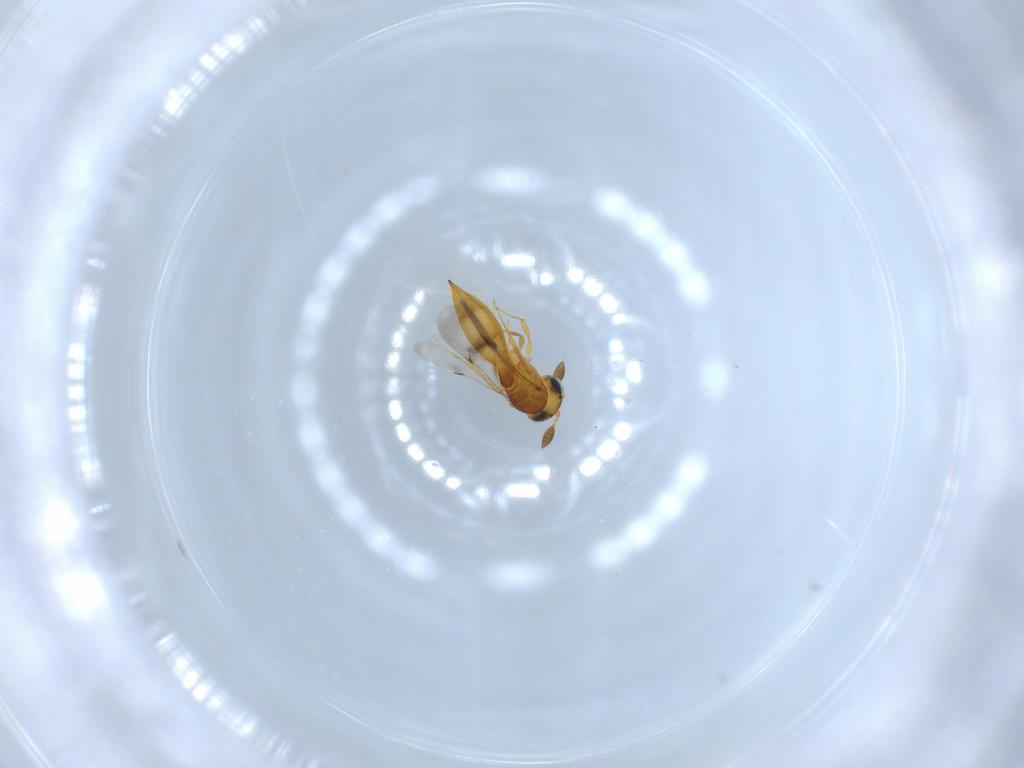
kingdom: Animalia
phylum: Arthropoda
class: Insecta
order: Hymenoptera
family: Scelionidae
